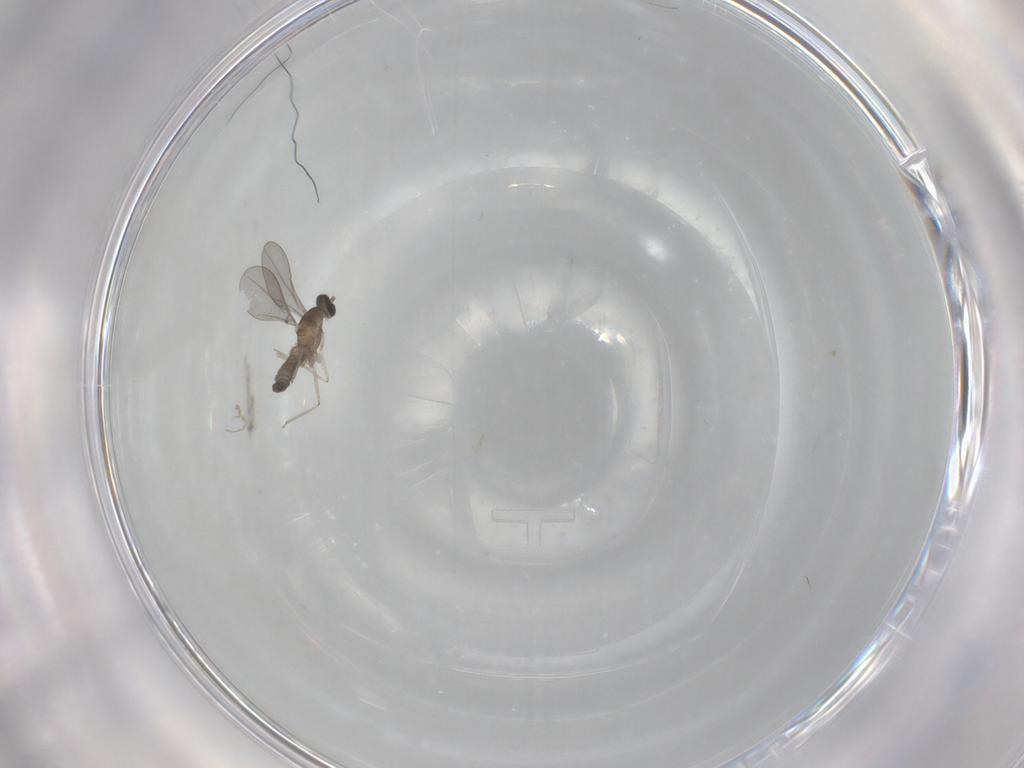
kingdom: Animalia
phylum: Arthropoda
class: Insecta
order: Diptera
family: Cecidomyiidae
